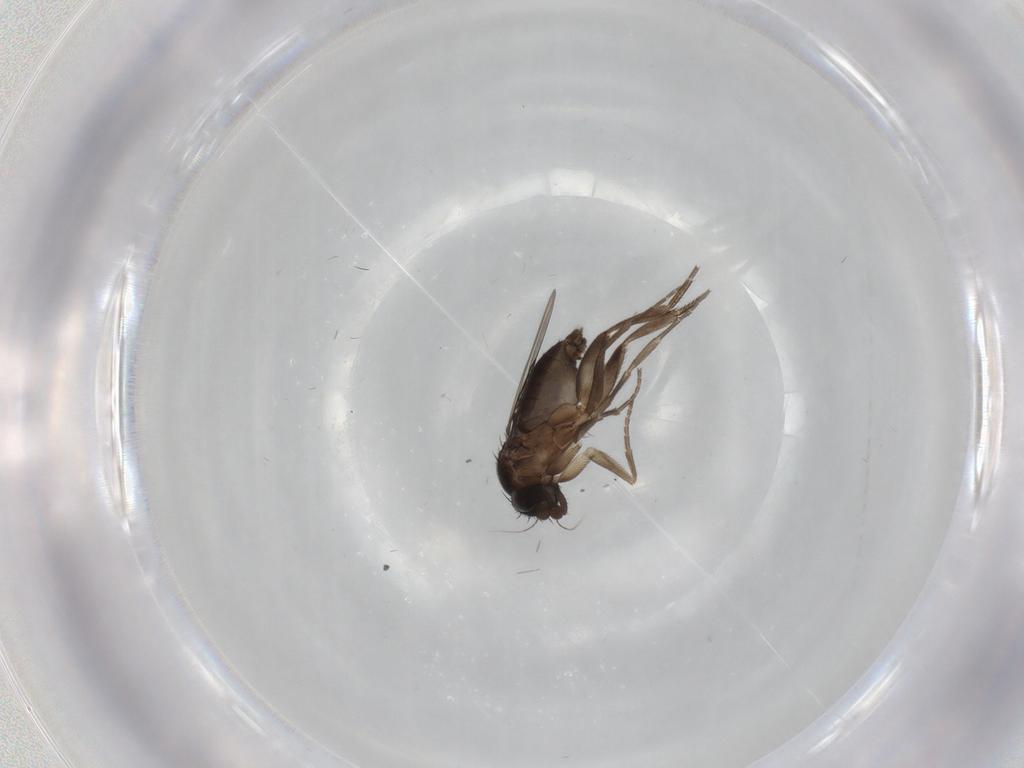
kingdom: Animalia
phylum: Arthropoda
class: Insecta
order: Diptera
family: Phoridae
